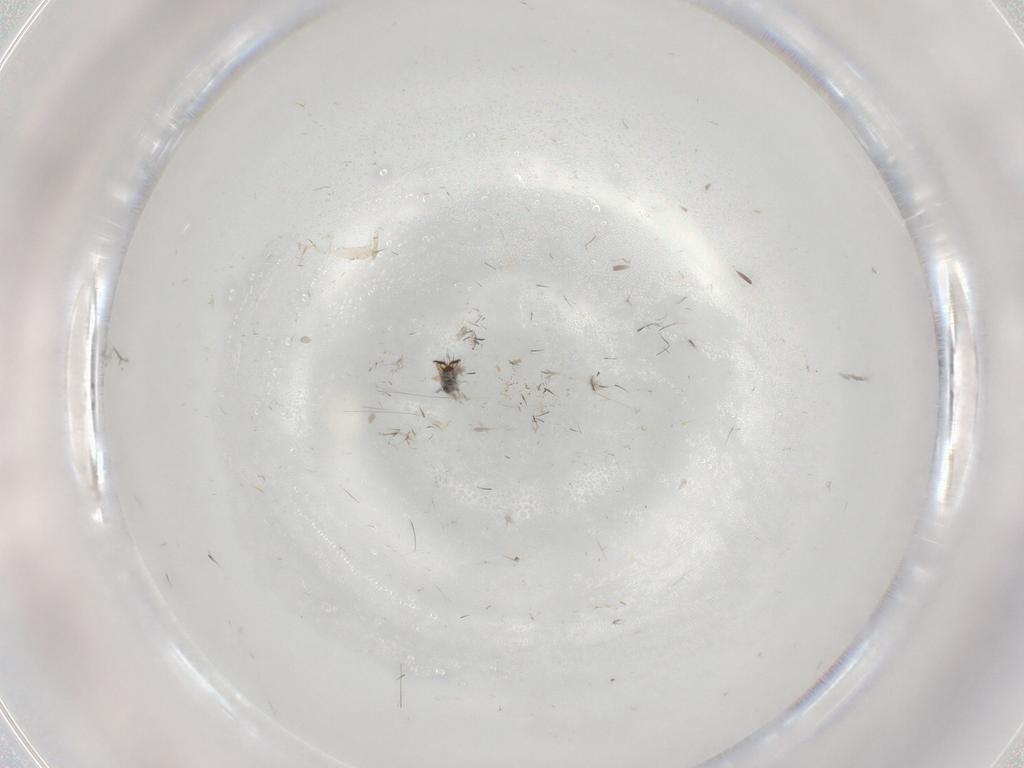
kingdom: Animalia
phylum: Arthropoda
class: Insecta
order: Diptera
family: Muscidae
